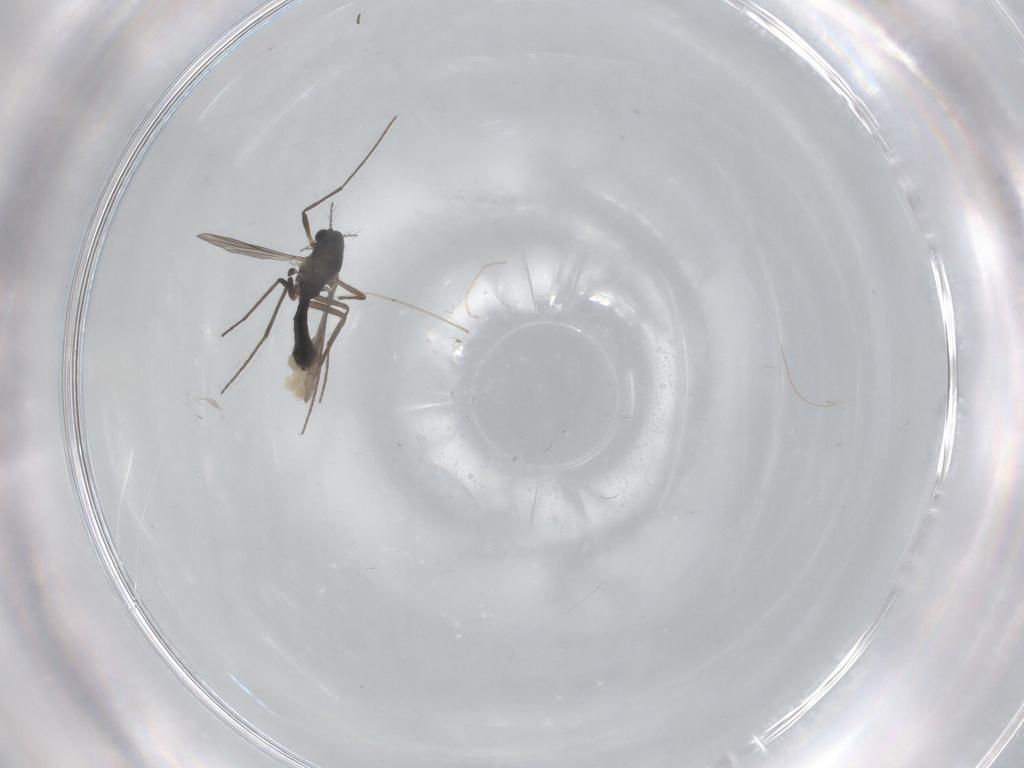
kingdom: Animalia
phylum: Arthropoda
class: Insecta
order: Diptera
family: Chironomidae
